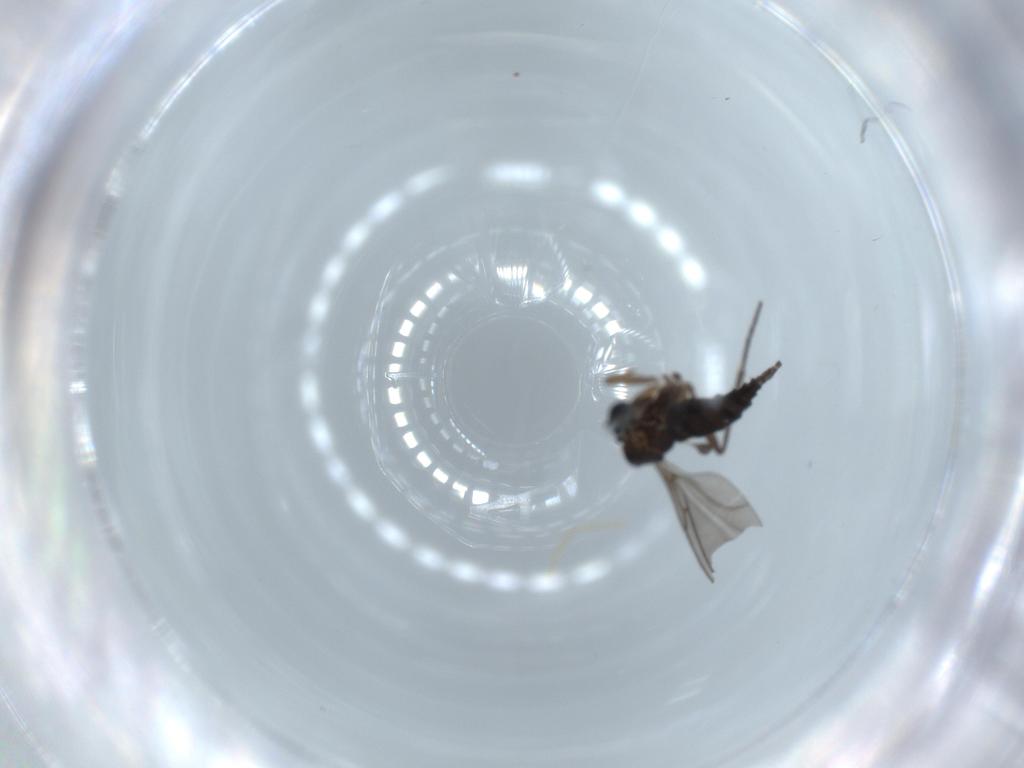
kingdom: Animalia
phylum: Arthropoda
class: Insecta
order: Diptera
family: Sciaridae
